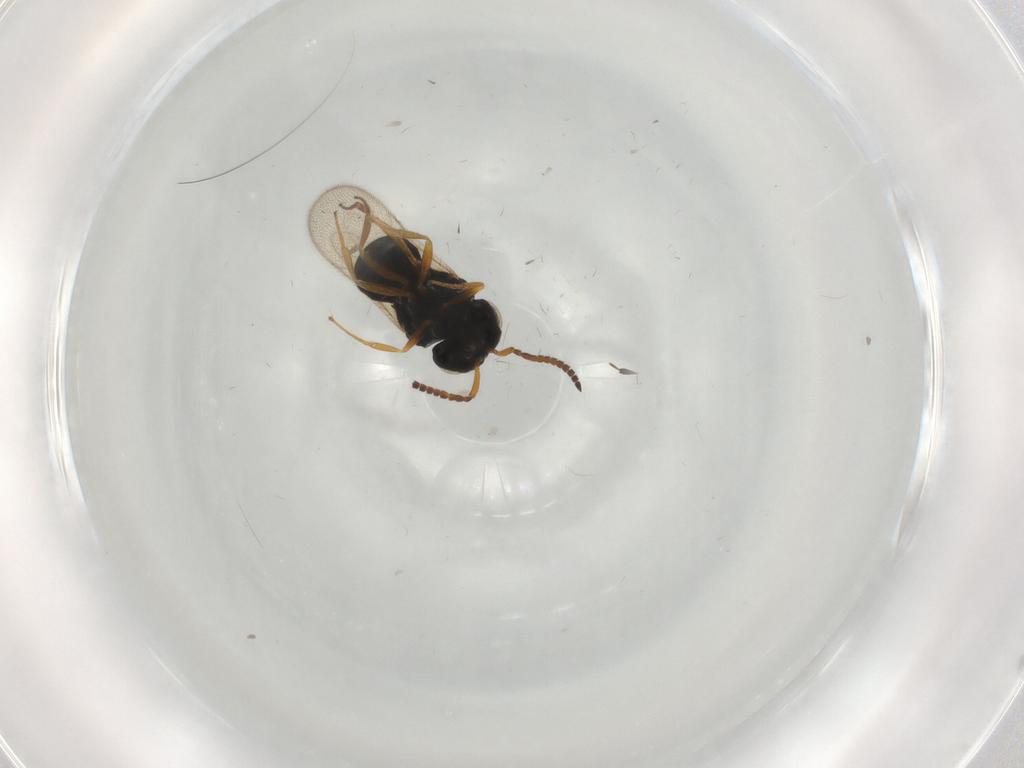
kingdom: Animalia
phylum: Arthropoda
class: Insecta
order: Hymenoptera
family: Scelionidae
